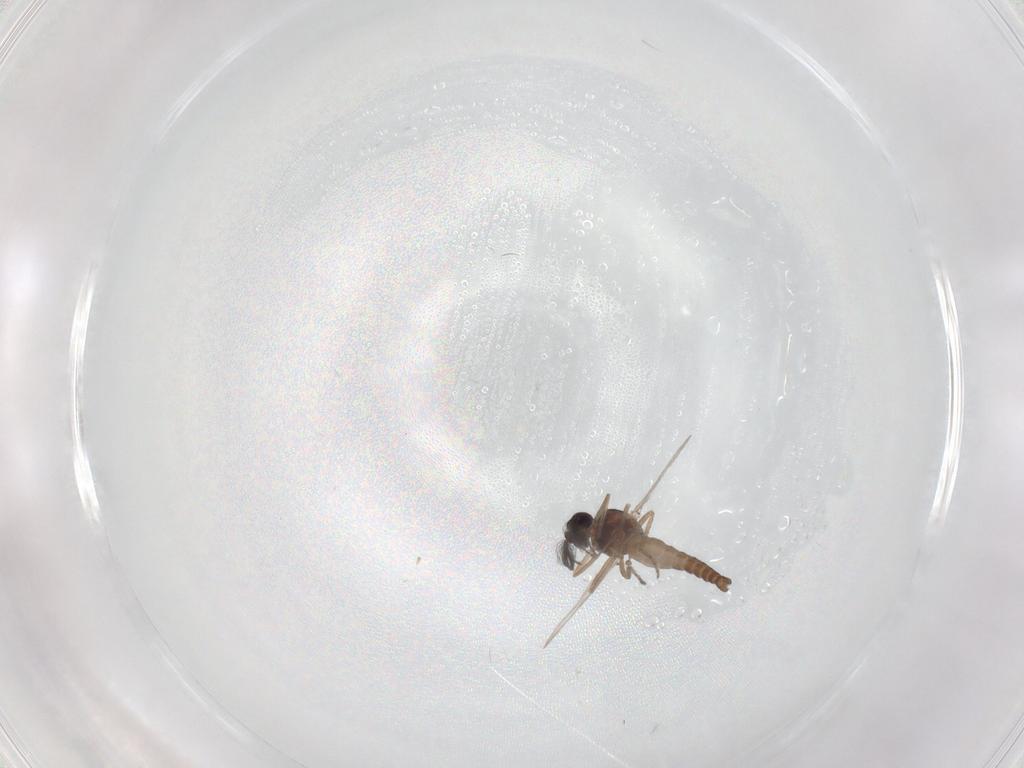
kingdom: Animalia
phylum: Arthropoda
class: Insecta
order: Diptera
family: Ceratopogonidae
